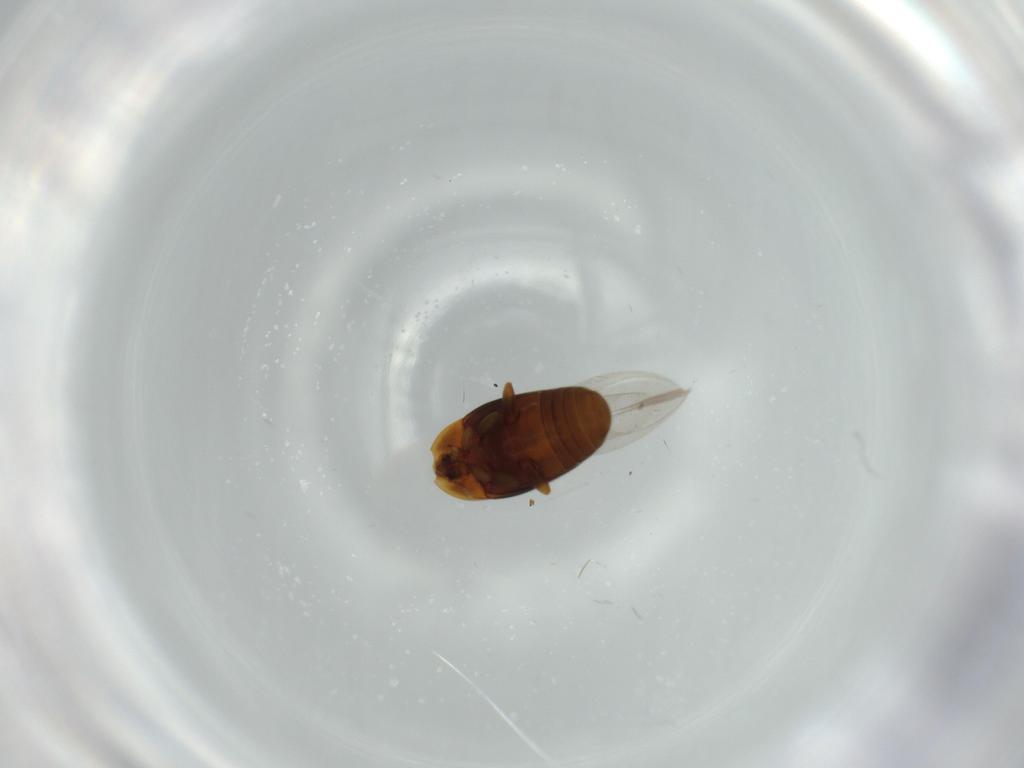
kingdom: Animalia
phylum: Arthropoda
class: Insecta
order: Coleoptera
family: Corylophidae
